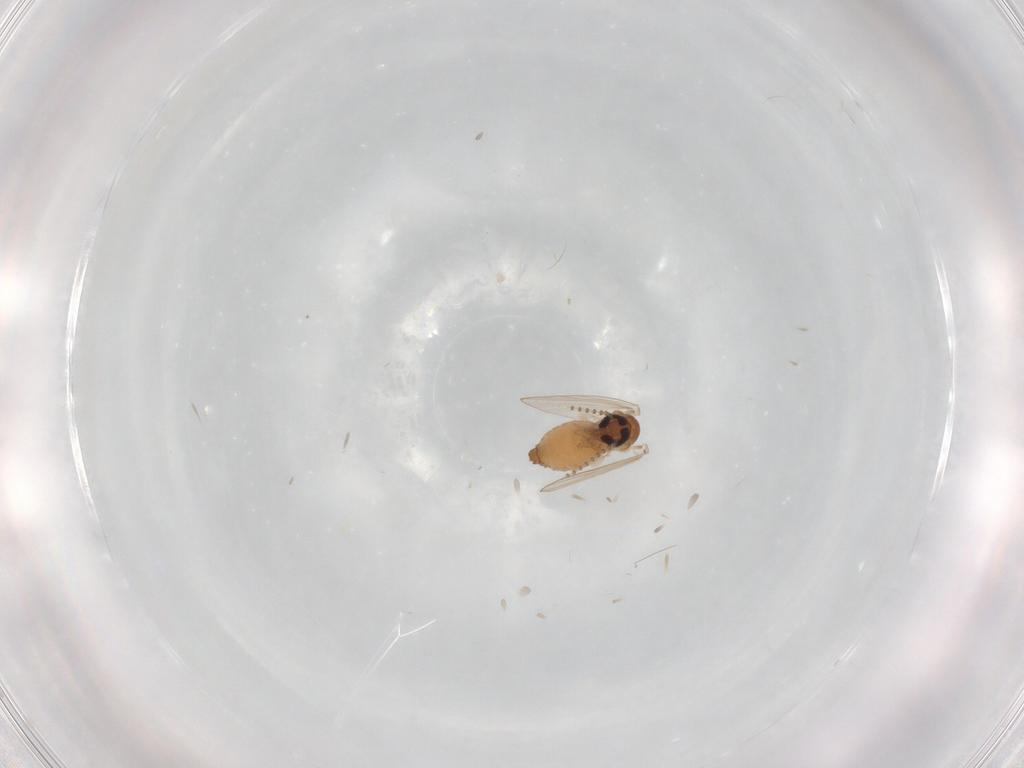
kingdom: Animalia
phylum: Arthropoda
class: Insecta
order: Diptera
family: Psychodidae
